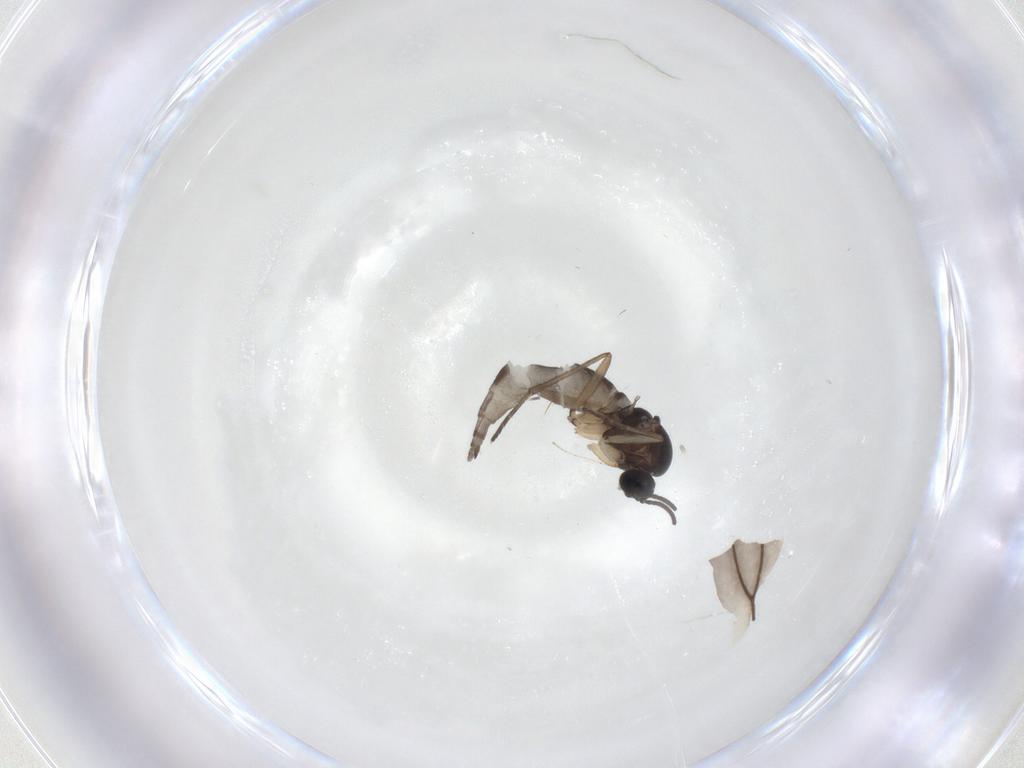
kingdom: Animalia
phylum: Arthropoda
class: Insecta
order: Diptera
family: Sciaridae
